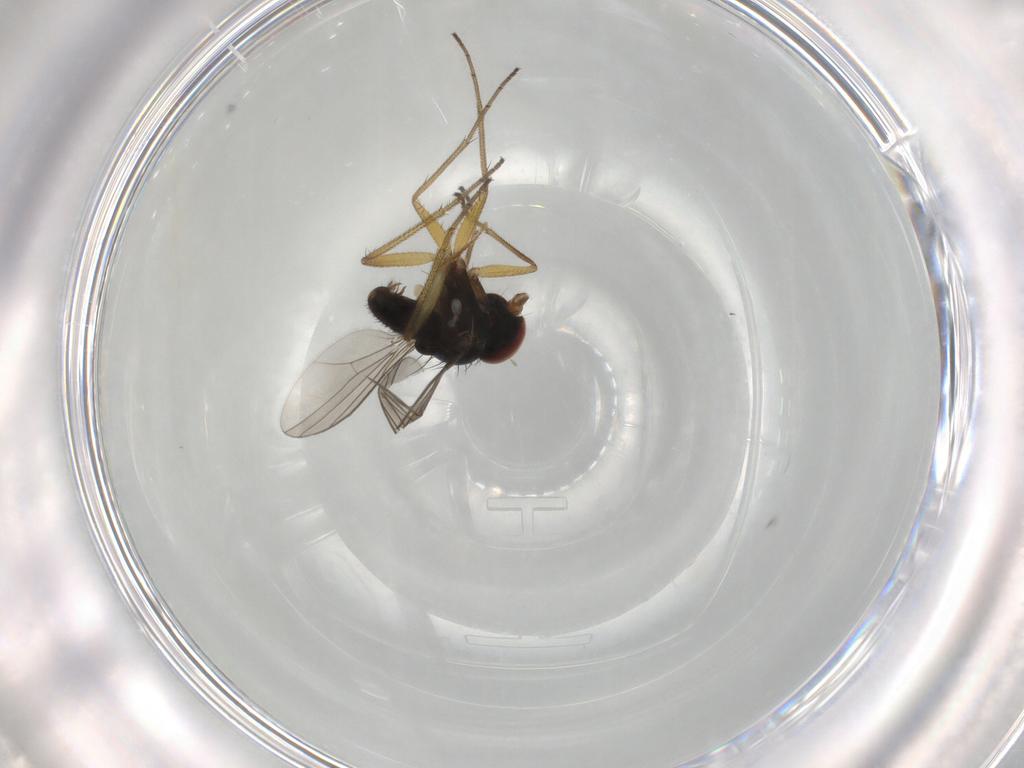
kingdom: Animalia
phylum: Arthropoda
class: Insecta
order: Diptera
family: Dolichopodidae
